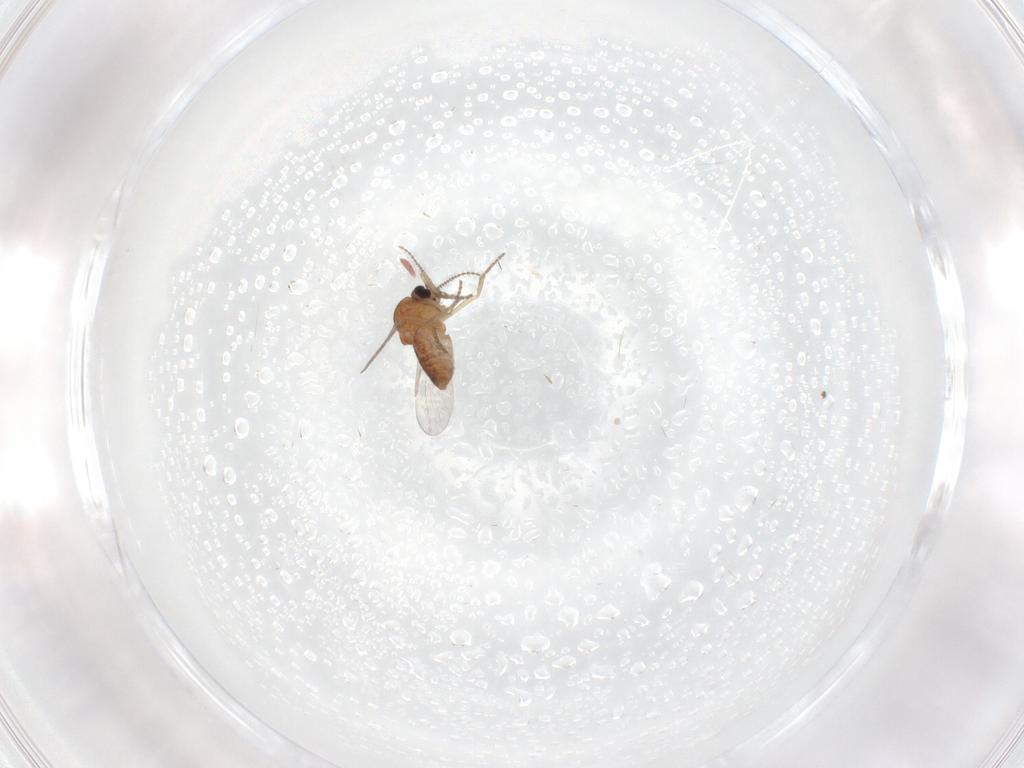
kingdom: Animalia
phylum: Arthropoda
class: Insecta
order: Diptera
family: Ceratopogonidae
